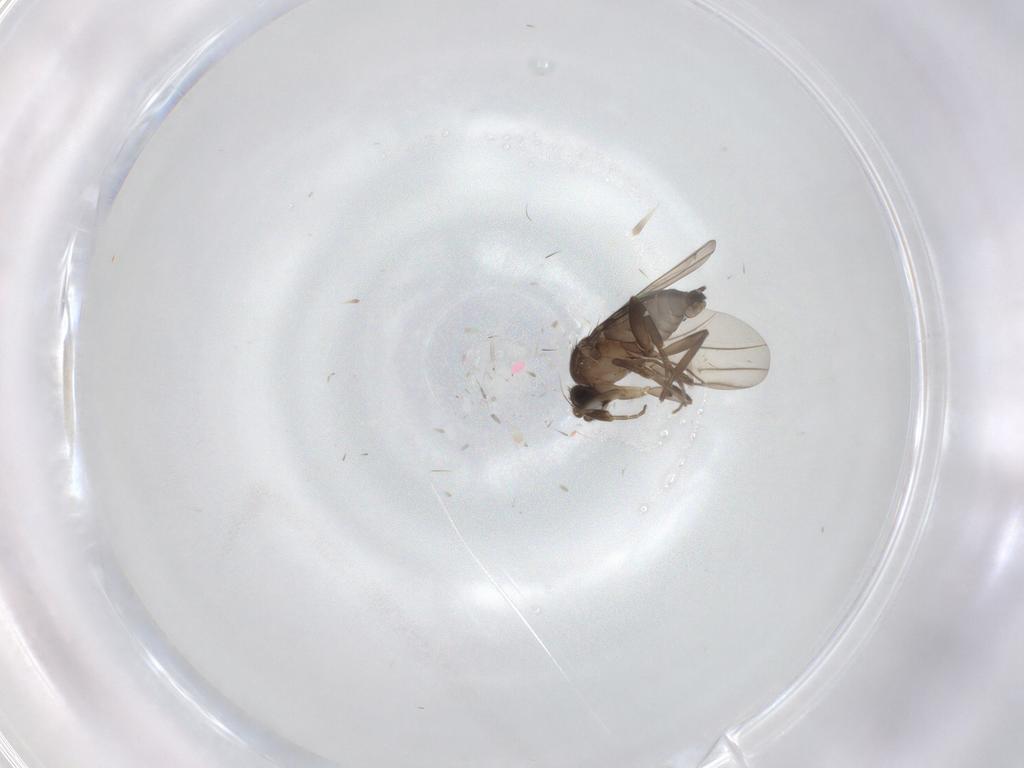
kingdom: Animalia
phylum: Arthropoda
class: Insecta
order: Diptera
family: Phoridae
